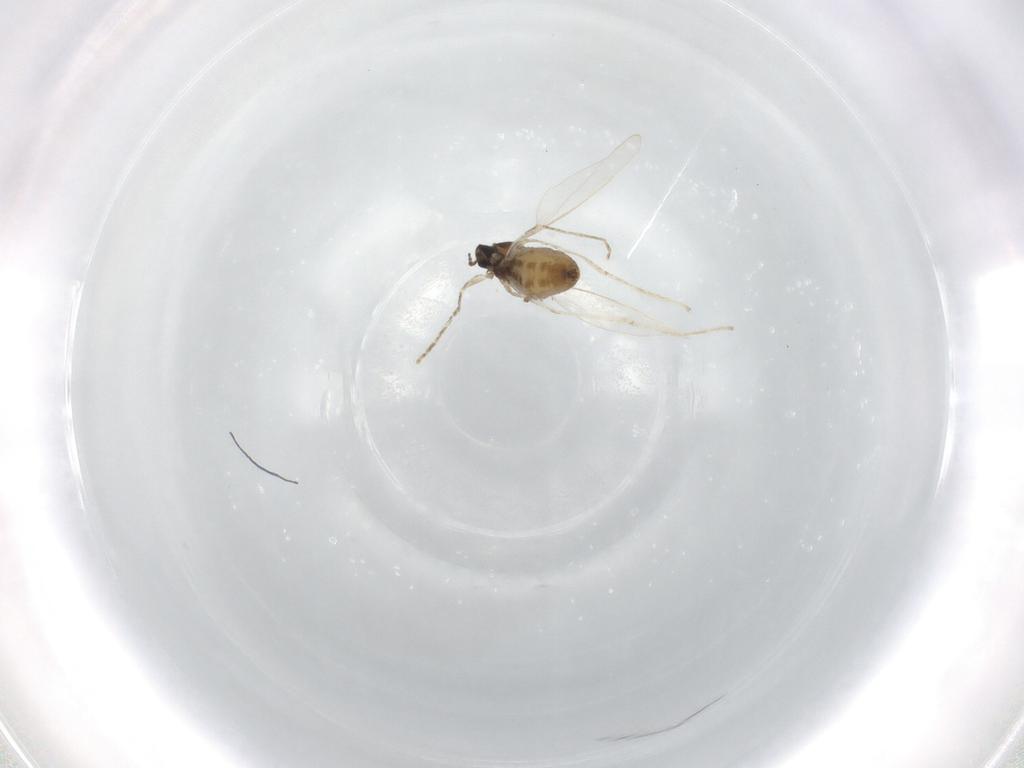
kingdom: Animalia
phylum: Arthropoda
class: Insecta
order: Diptera
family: Cecidomyiidae
